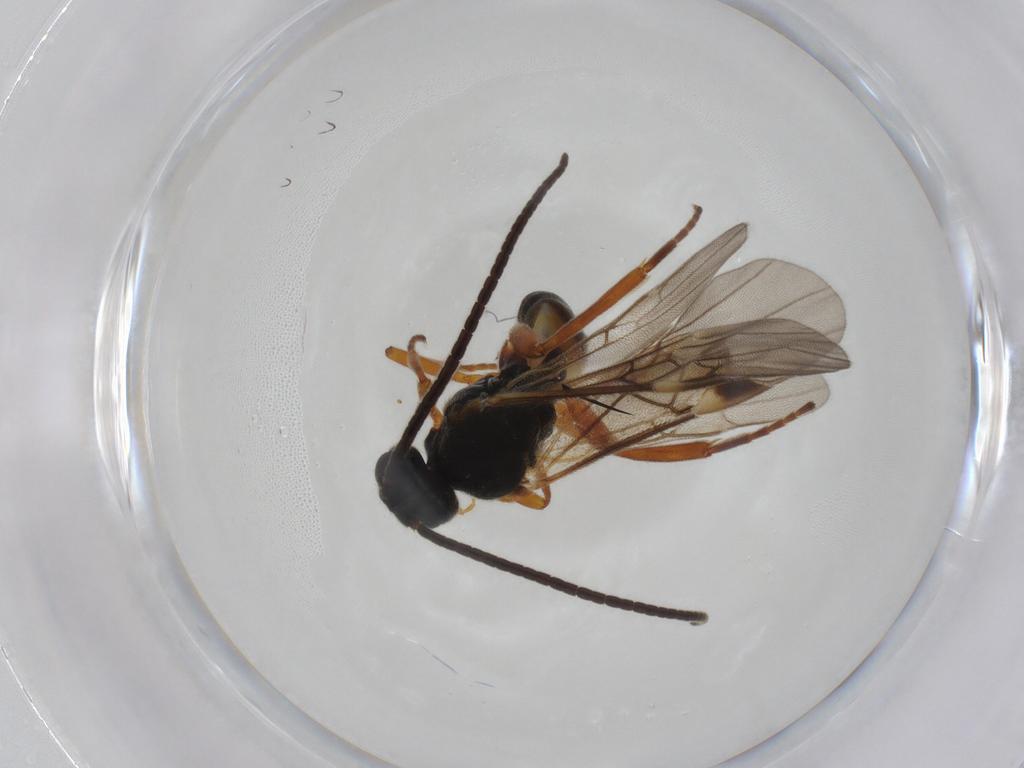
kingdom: Animalia
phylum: Arthropoda
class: Insecta
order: Hymenoptera
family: Braconidae
